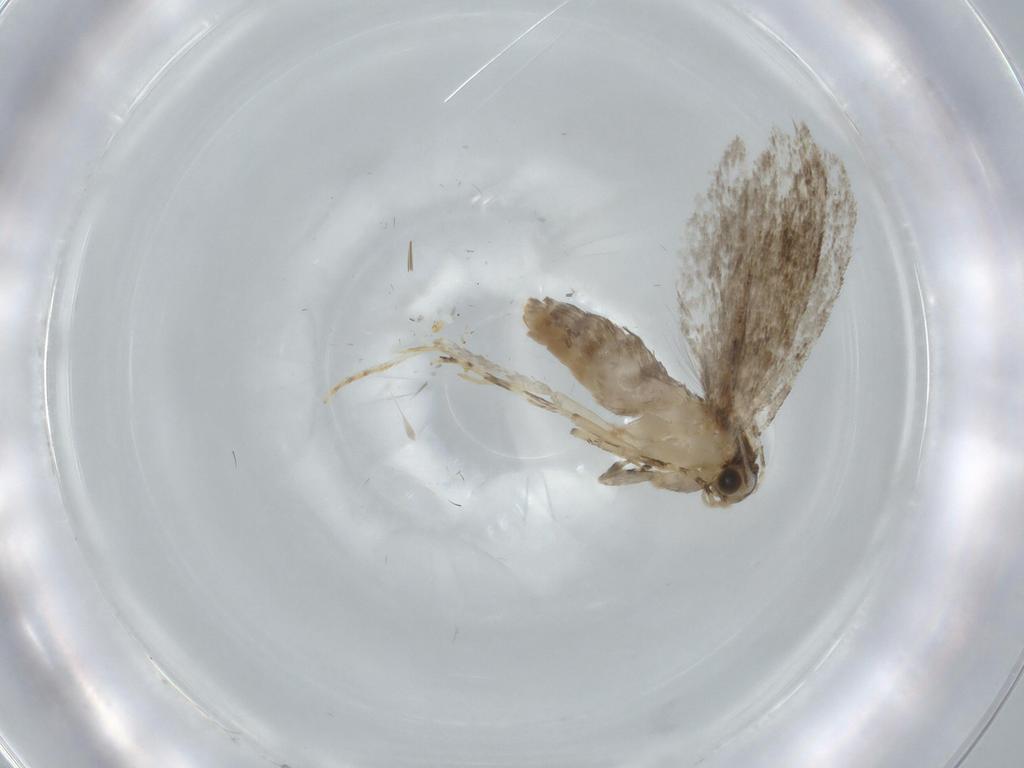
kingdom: Animalia
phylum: Arthropoda
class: Insecta
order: Lepidoptera
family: Tineidae
